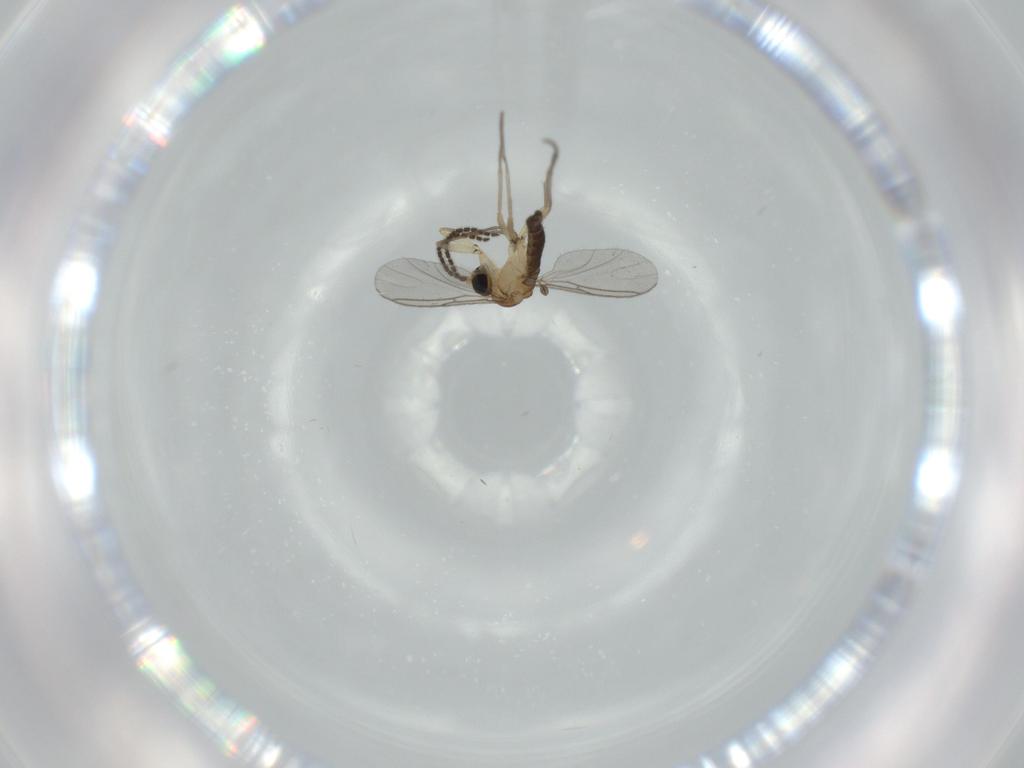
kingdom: Animalia
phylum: Arthropoda
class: Insecta
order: Diptera
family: Sciaridae
